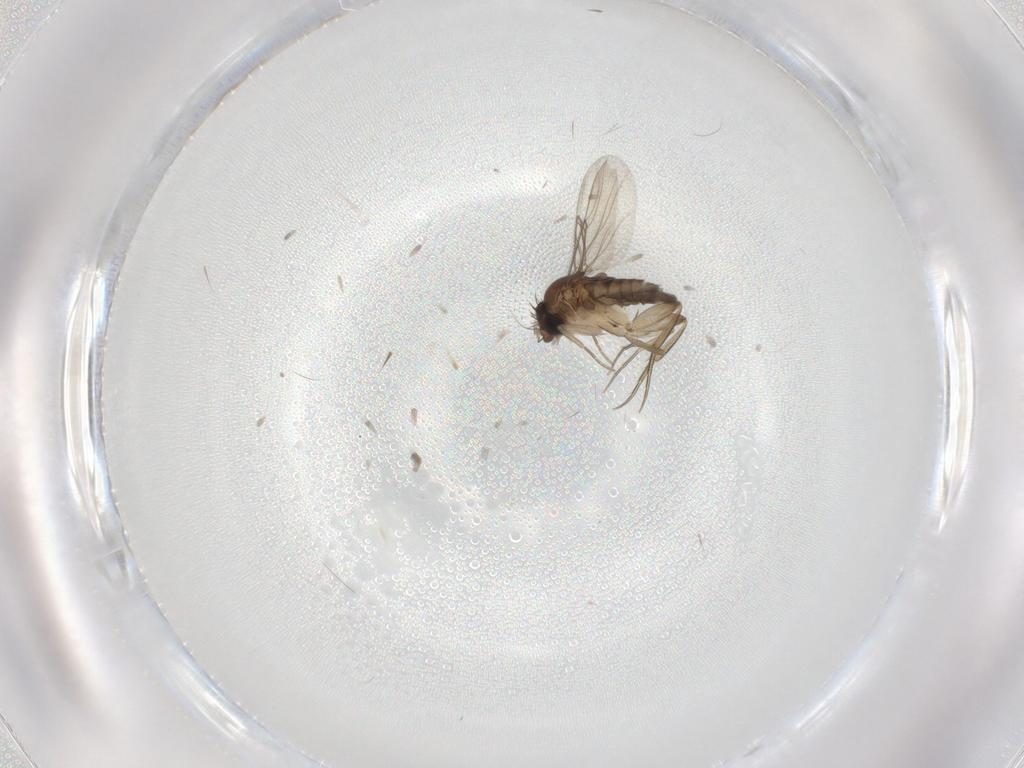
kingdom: Animalia
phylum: Arthropoda
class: Insecta
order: Diptera
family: Phoridae
